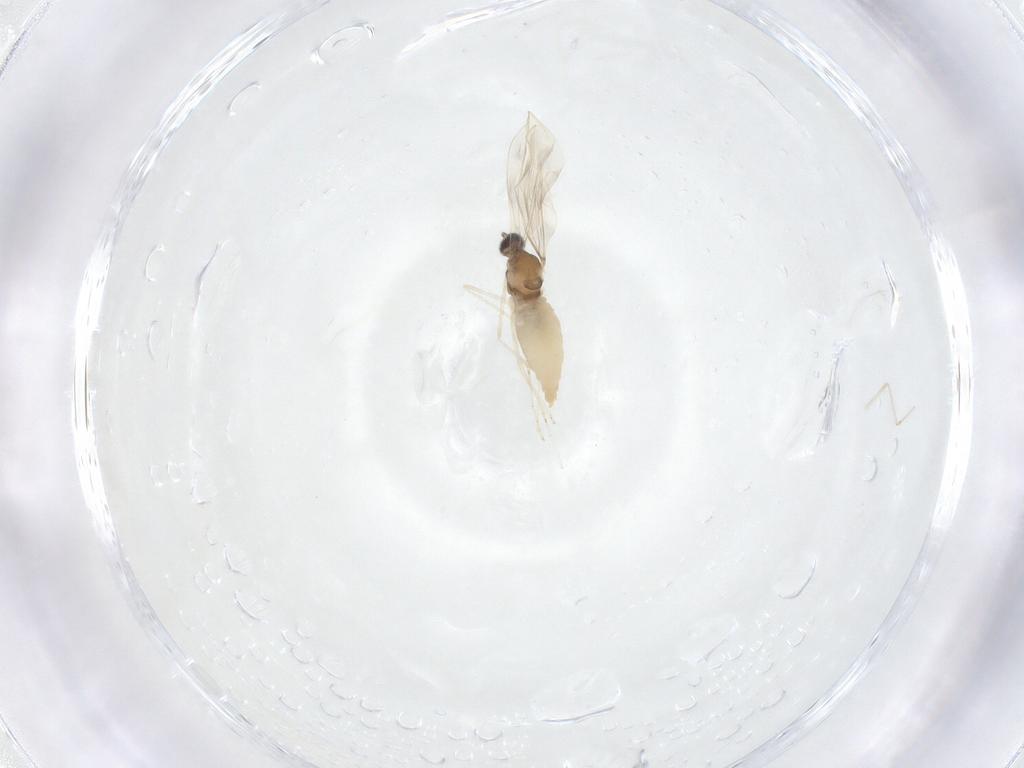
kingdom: Animalia
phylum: Arthropoda
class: Insecta
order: Diptera
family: Cecidomyiidae
